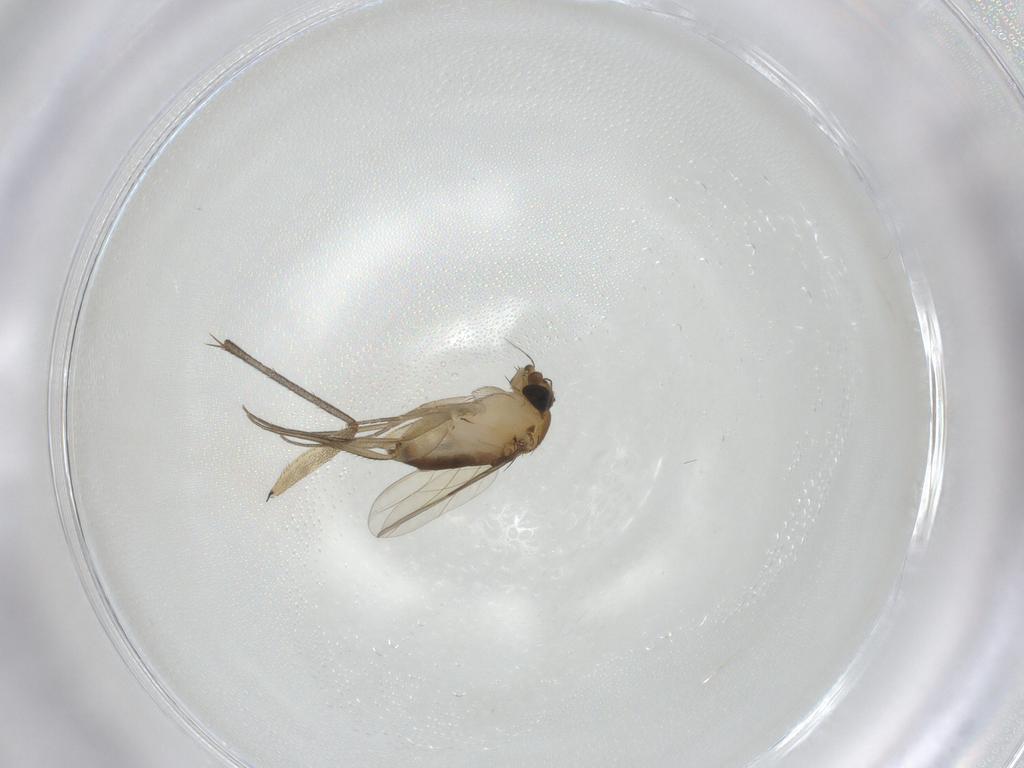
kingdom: Animalia
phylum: Arthropoda
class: Insecta
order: Diptera
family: Phoridae
